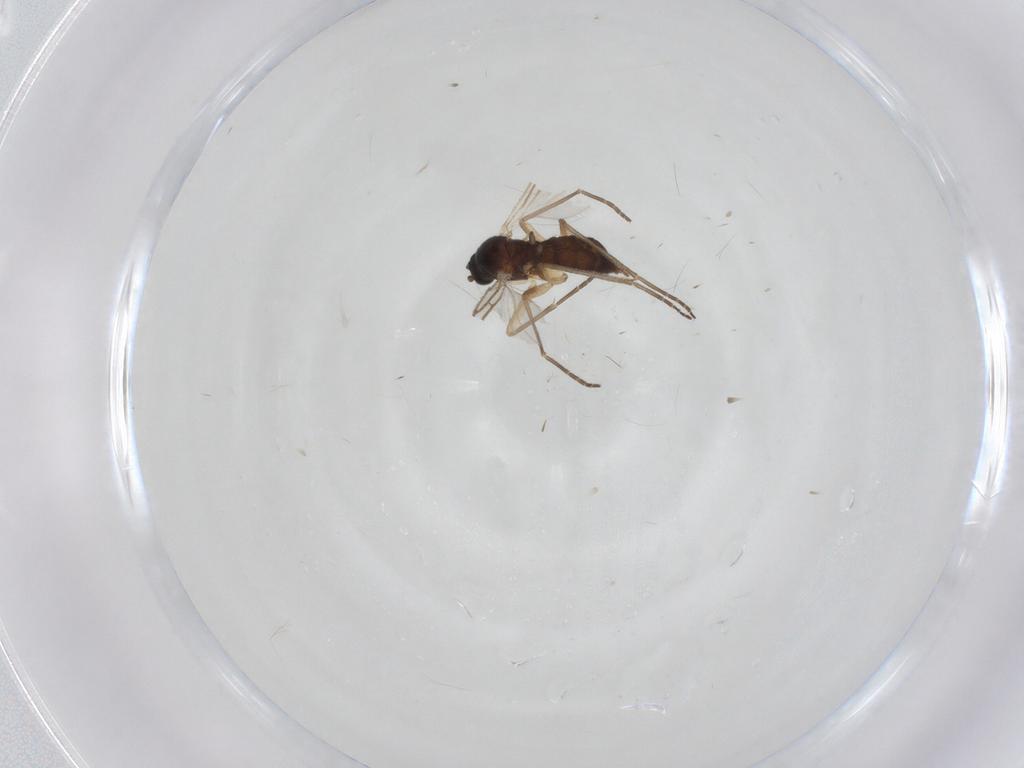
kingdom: Animalia
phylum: Arthropoda
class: Insecta
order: Diptera
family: Sciaridae
